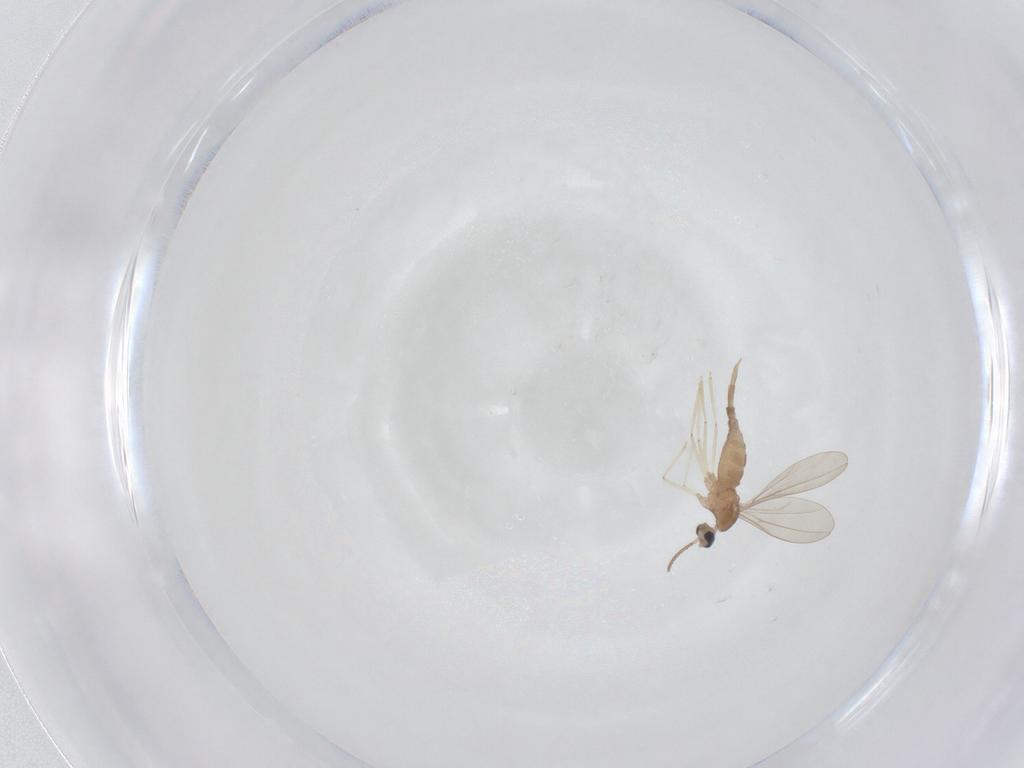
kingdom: Animalia
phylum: Arthropoda
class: Insecta
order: Diptera
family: Cecidomyiidae
